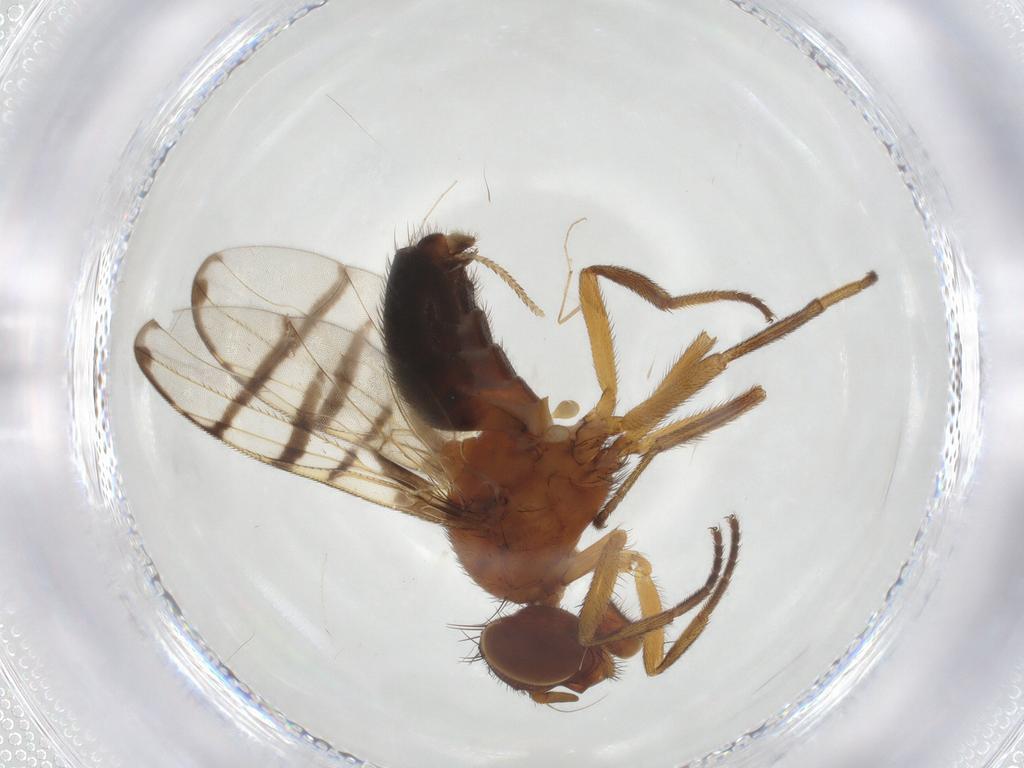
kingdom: Animalia
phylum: Arthropoda
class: Insecta
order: Diptera
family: Platystomatidae
